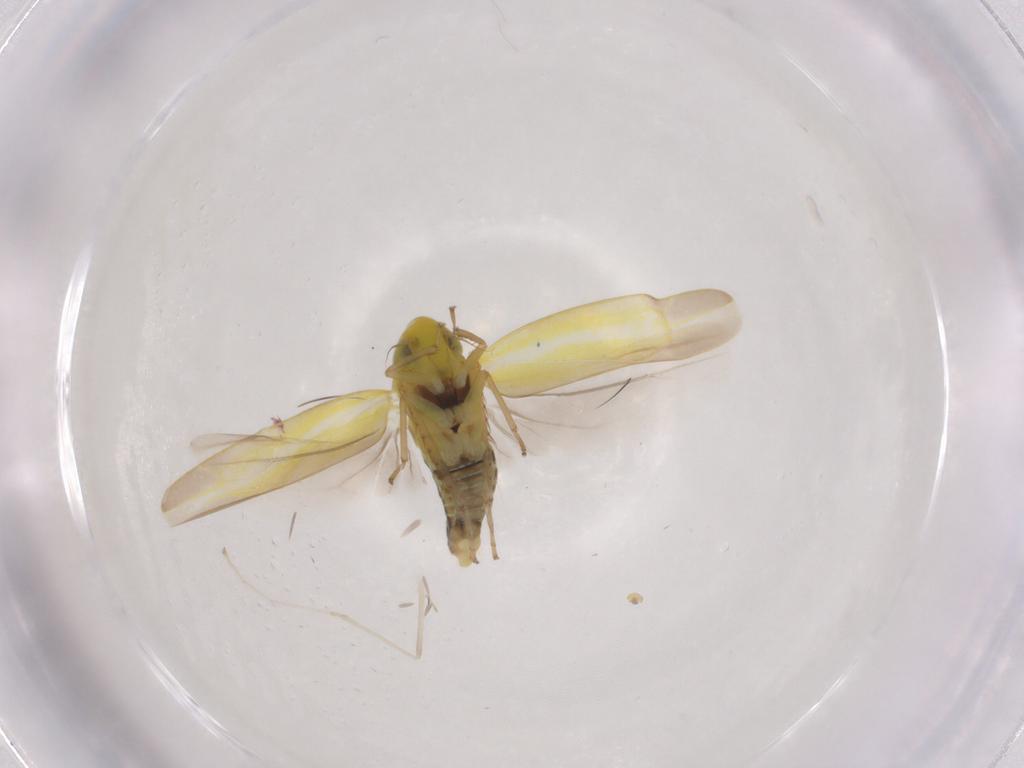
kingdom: Animalia
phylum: Arthropoda
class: Insecta
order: Hemiptera
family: Cicadellidae
